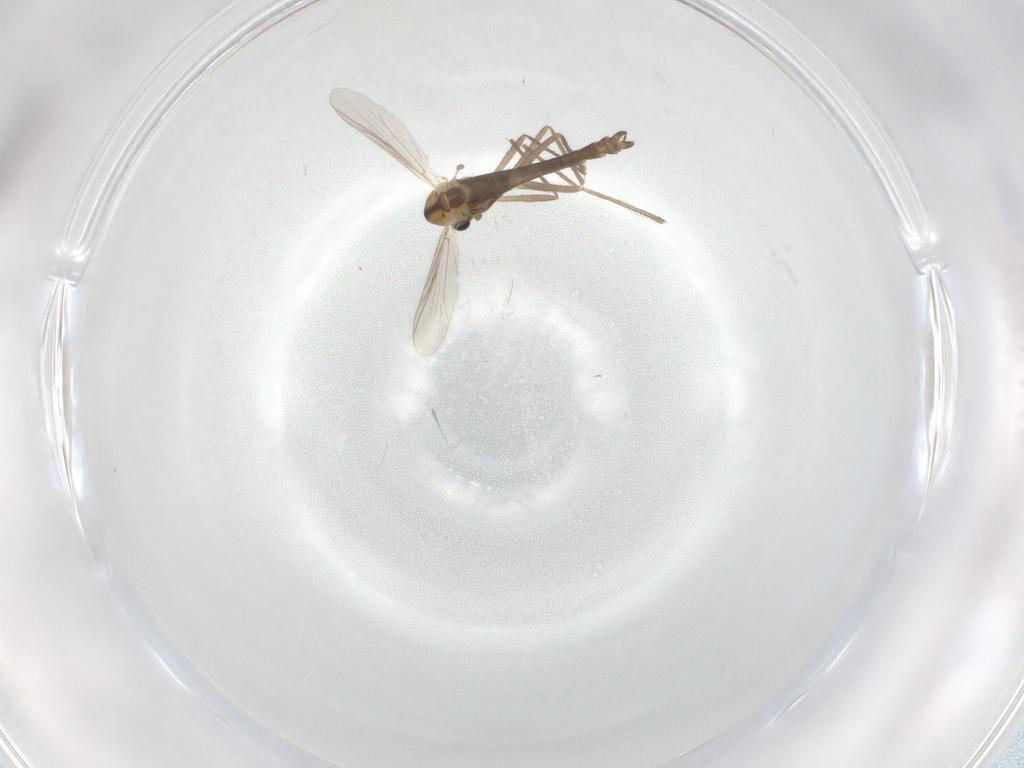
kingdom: Animalia
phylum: Arthropoda
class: Insecta
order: Diptera
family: Chironomidae
